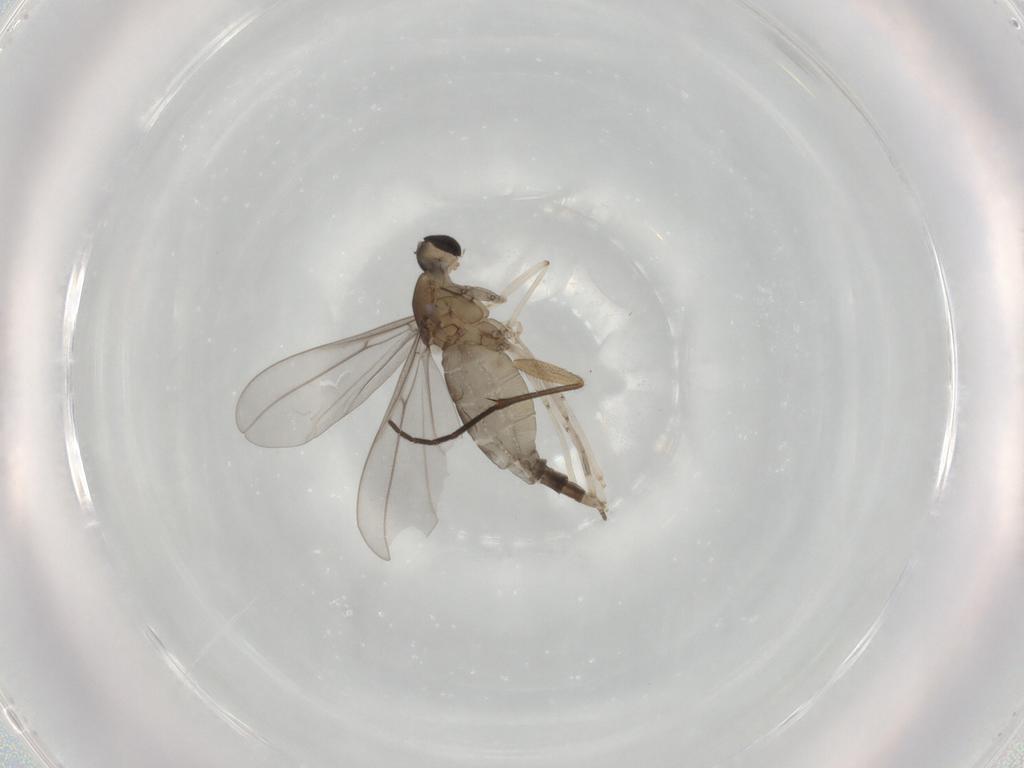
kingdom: Animalia
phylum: Arthropoda
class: Insecta
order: Diptera
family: Cecidomyiidae
